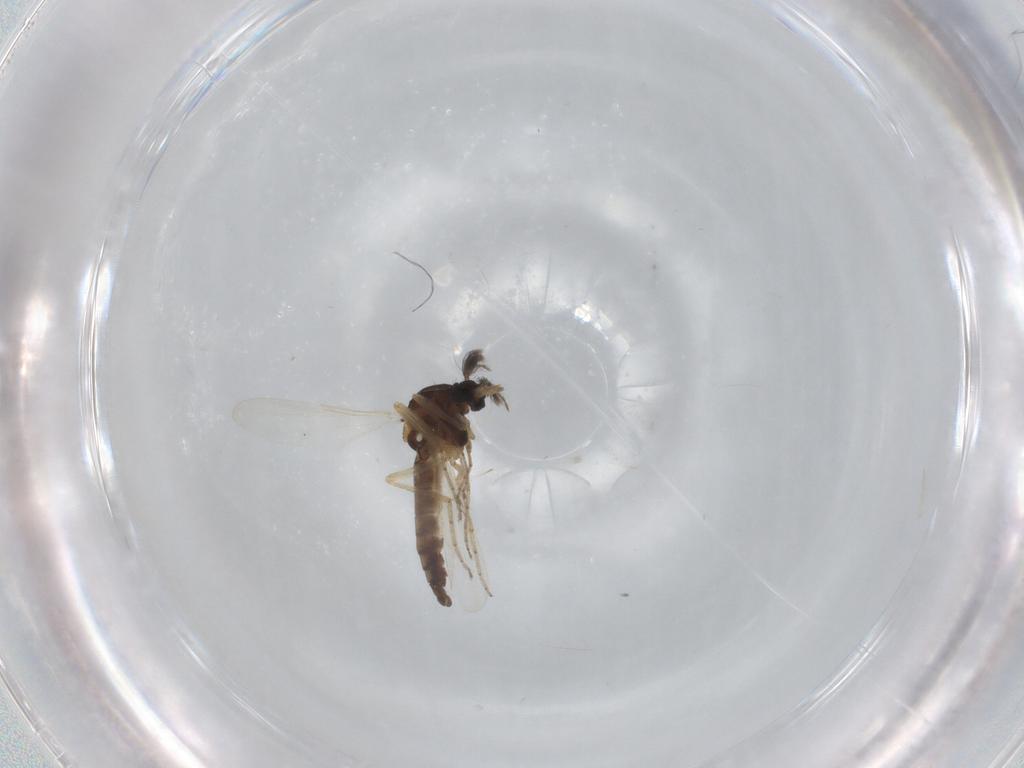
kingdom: Animalia
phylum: Arthropoda
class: Insecta
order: Diptera
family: Ceratopogonidae
